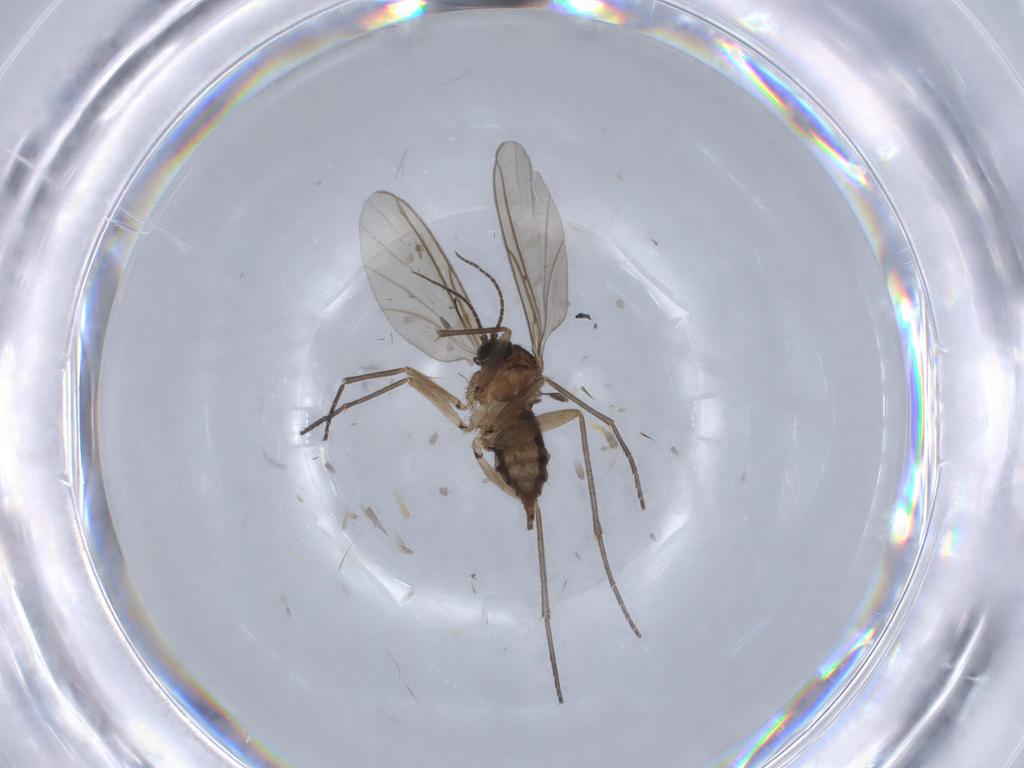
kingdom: Animalia
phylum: Arthropoda
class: Insecta
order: Diptera
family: Sciaridae
